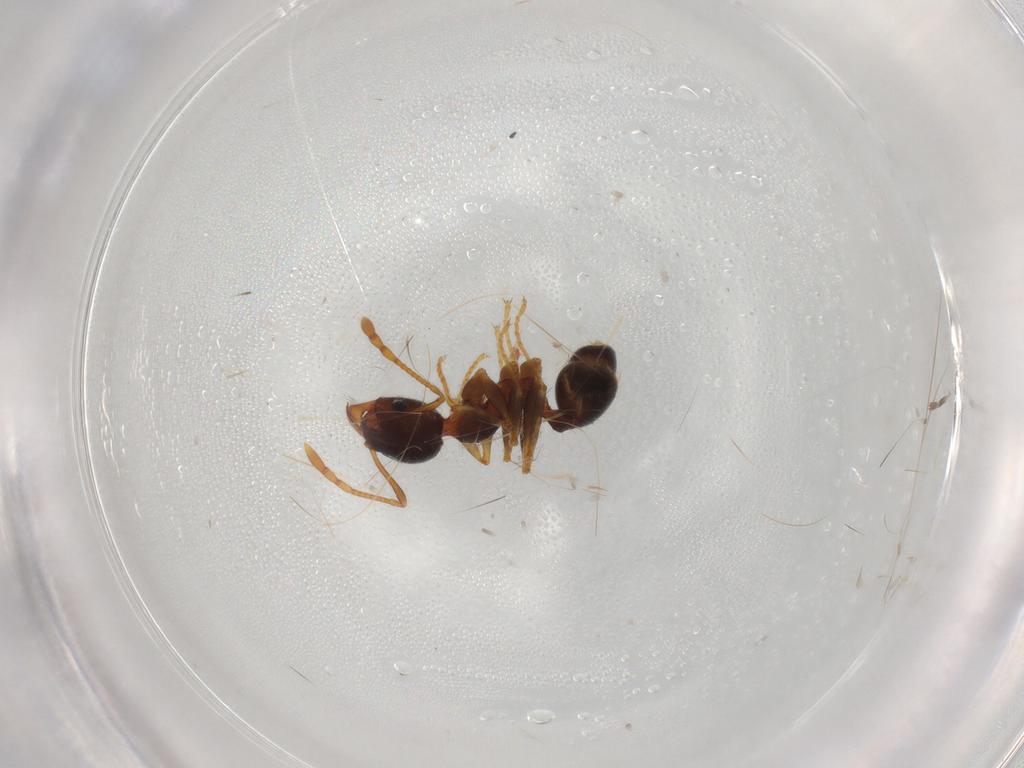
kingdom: Animalia
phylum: Arthropoda
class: Insecta
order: Hymenoptera
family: Formicidae
